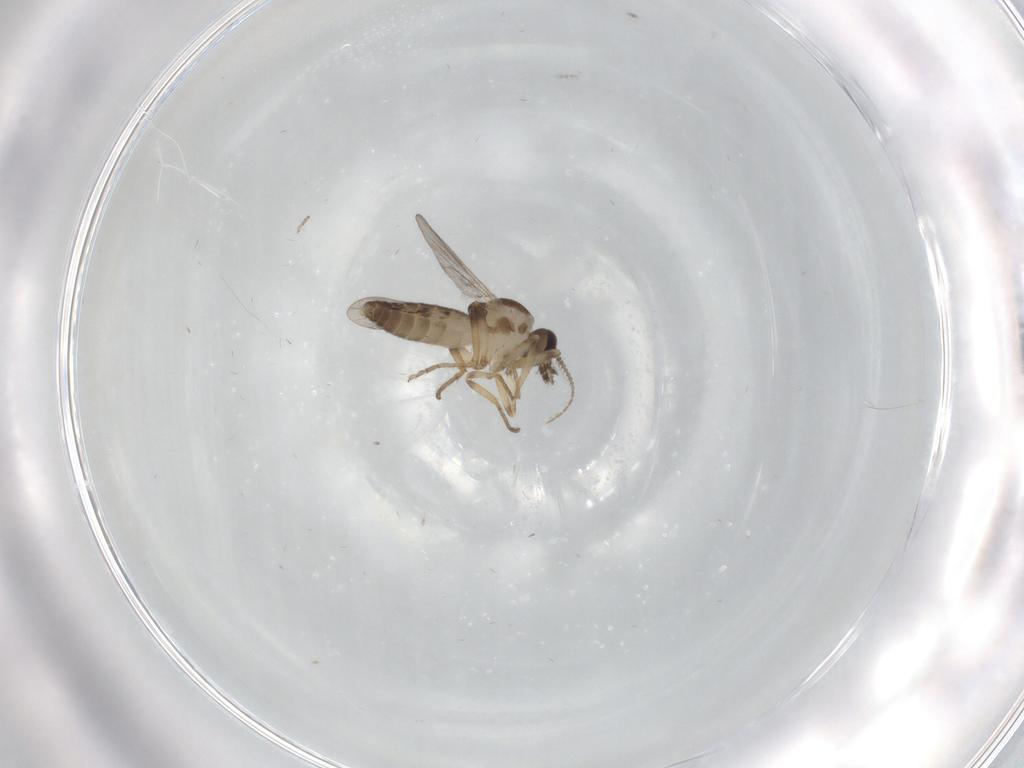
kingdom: Animalia
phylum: Arthropoda
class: Insecta
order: Diptera
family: Ceratopogonidae
